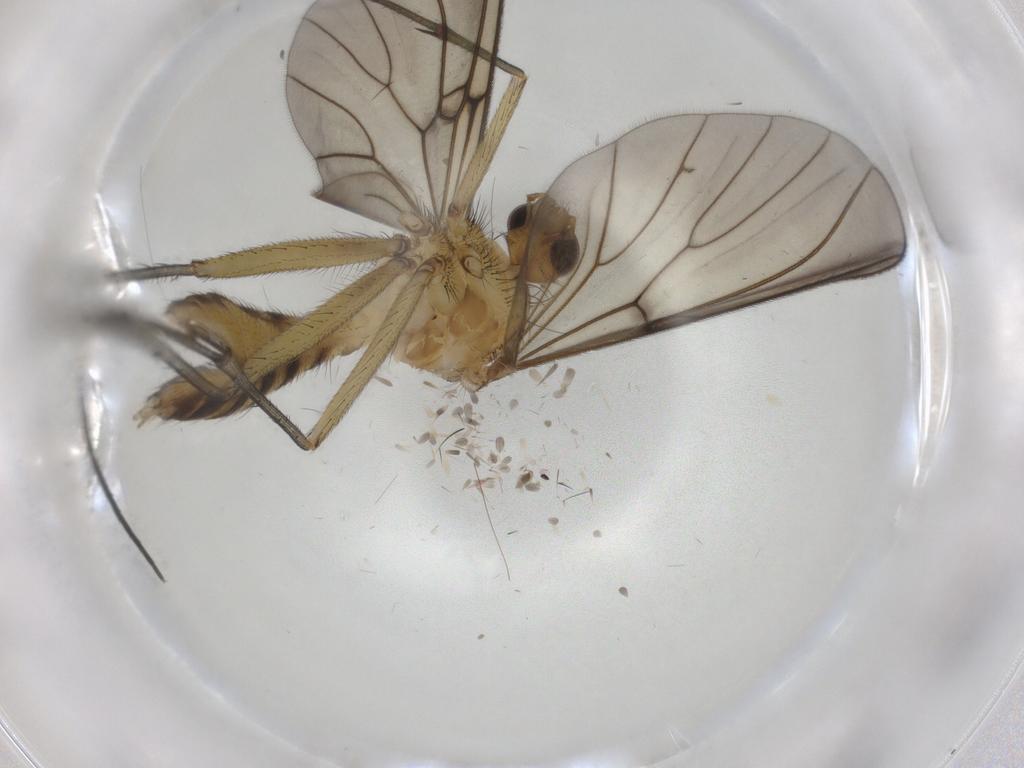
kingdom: Animalia
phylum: Arthropoda
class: Insecta
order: Diptera
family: Mycetophilidae
